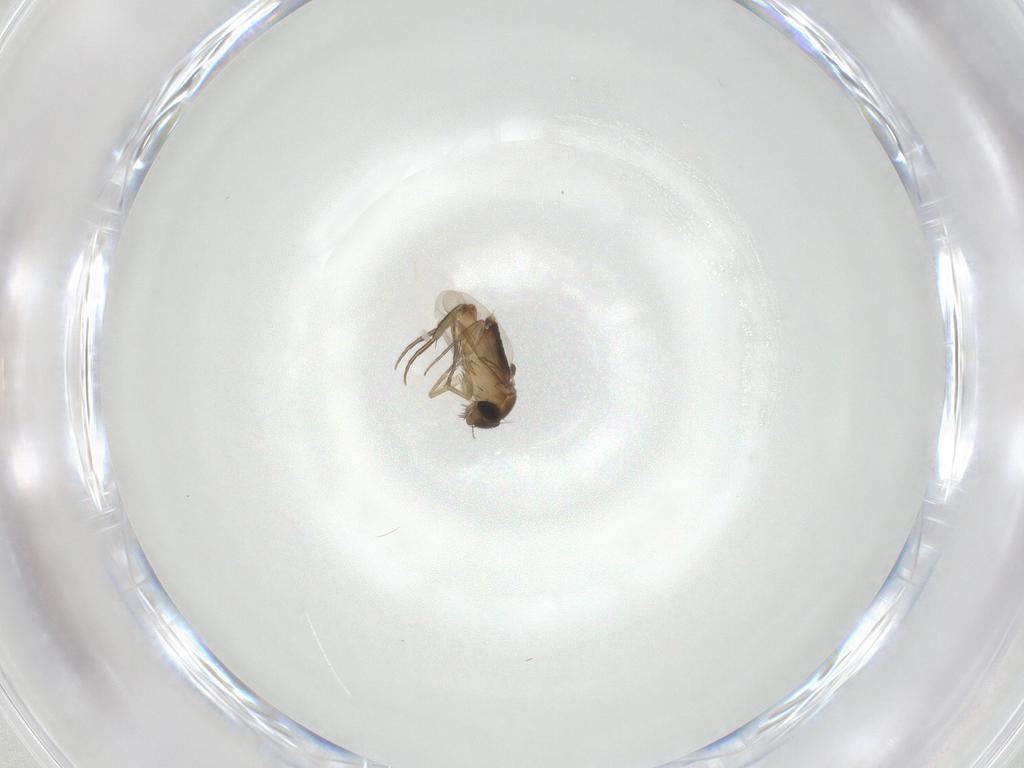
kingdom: Animalia
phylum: Arthropoda
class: Insecta
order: Diptera
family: Phoridae
